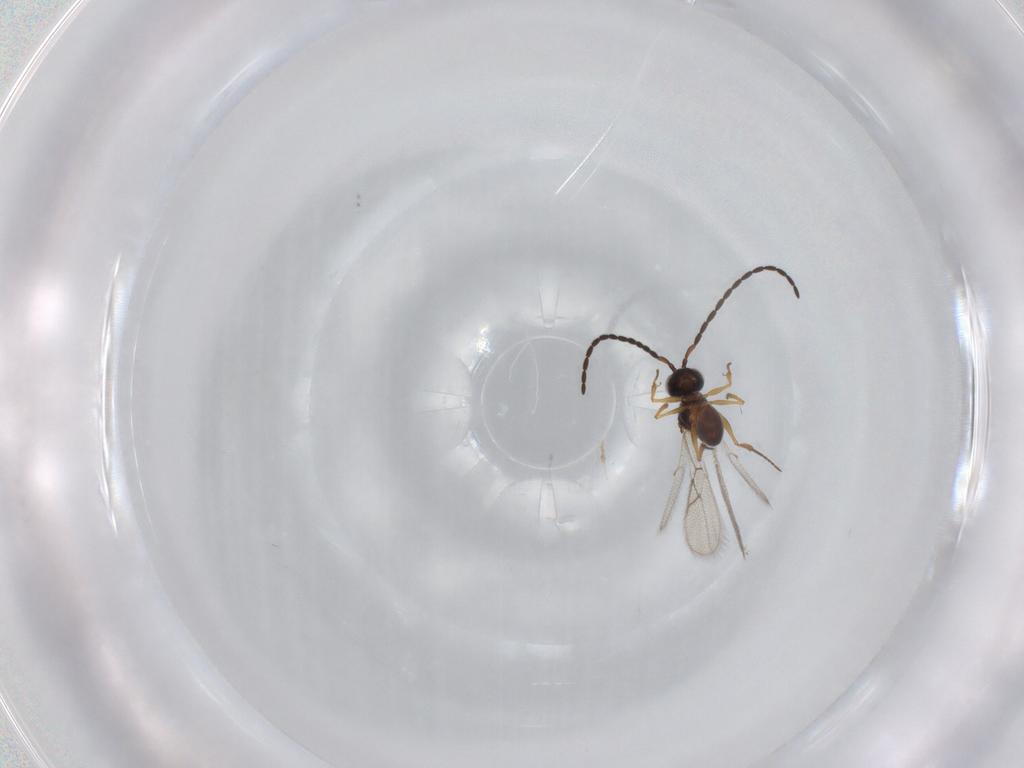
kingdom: Animalia
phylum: Arthropoda
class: Insecta
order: Hymenoptera
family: Figitidae
